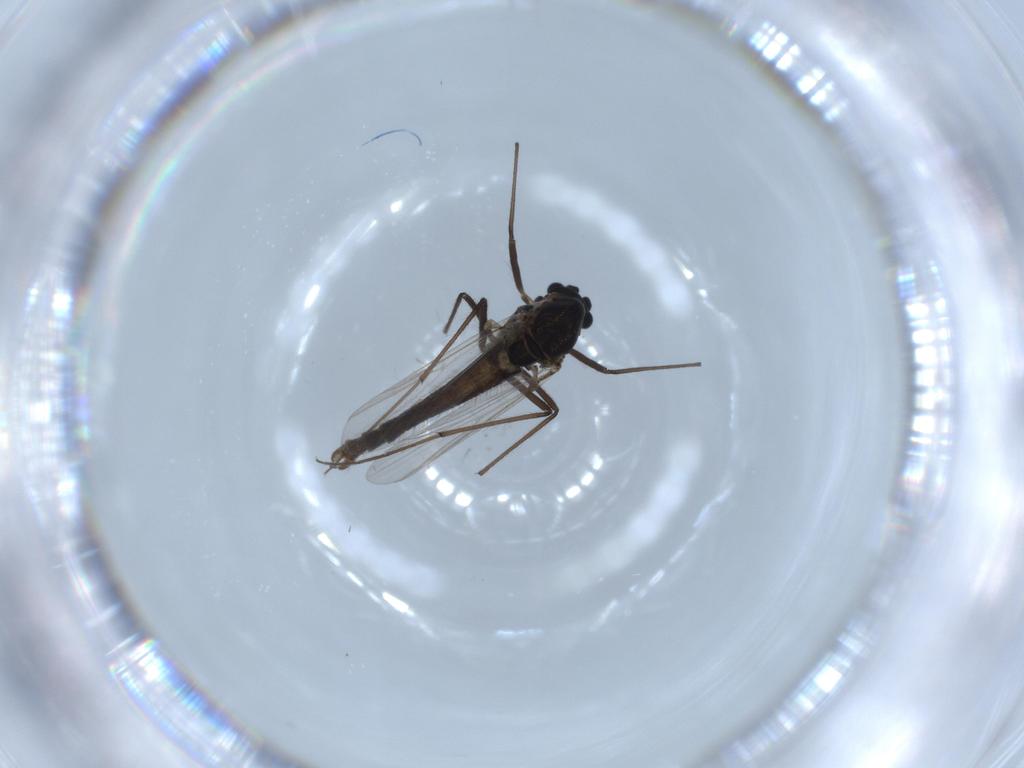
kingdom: Animalia
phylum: Arthropoda
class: Insecta
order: Diptera
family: Chironomidae
